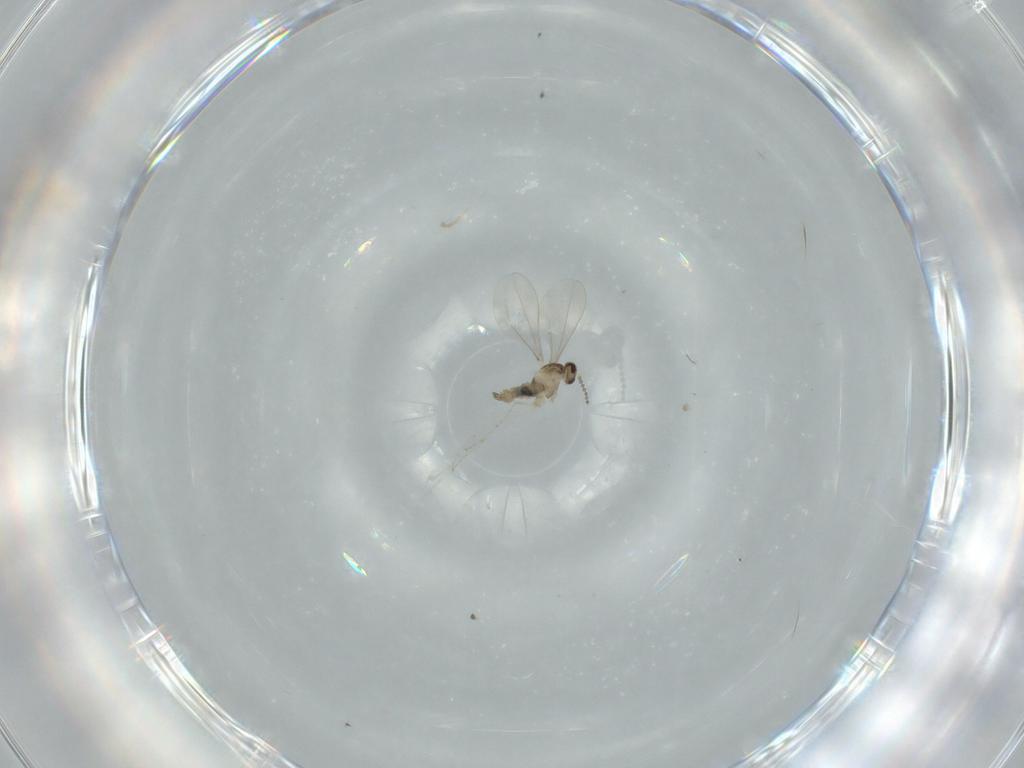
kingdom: Animalia
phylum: Arthropoda
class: Insecta
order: Diptera
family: Cecidomyiidae
